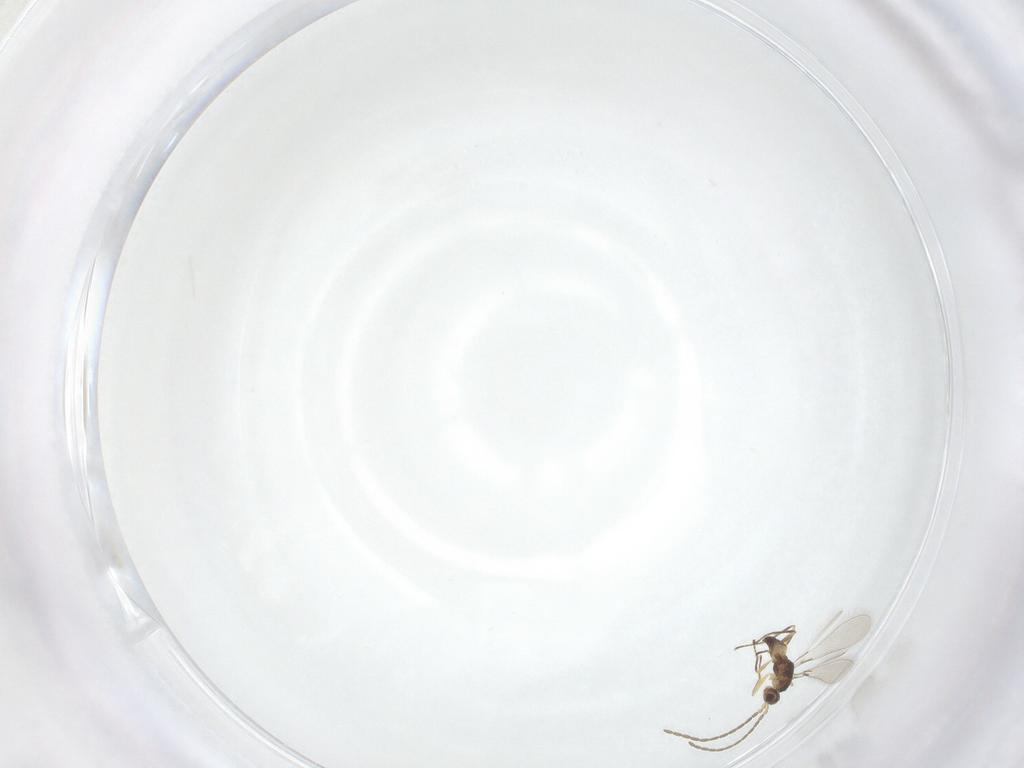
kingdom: Animalia
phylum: Arthropoda
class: Insecta
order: Hymenoptera
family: Mymaridae
